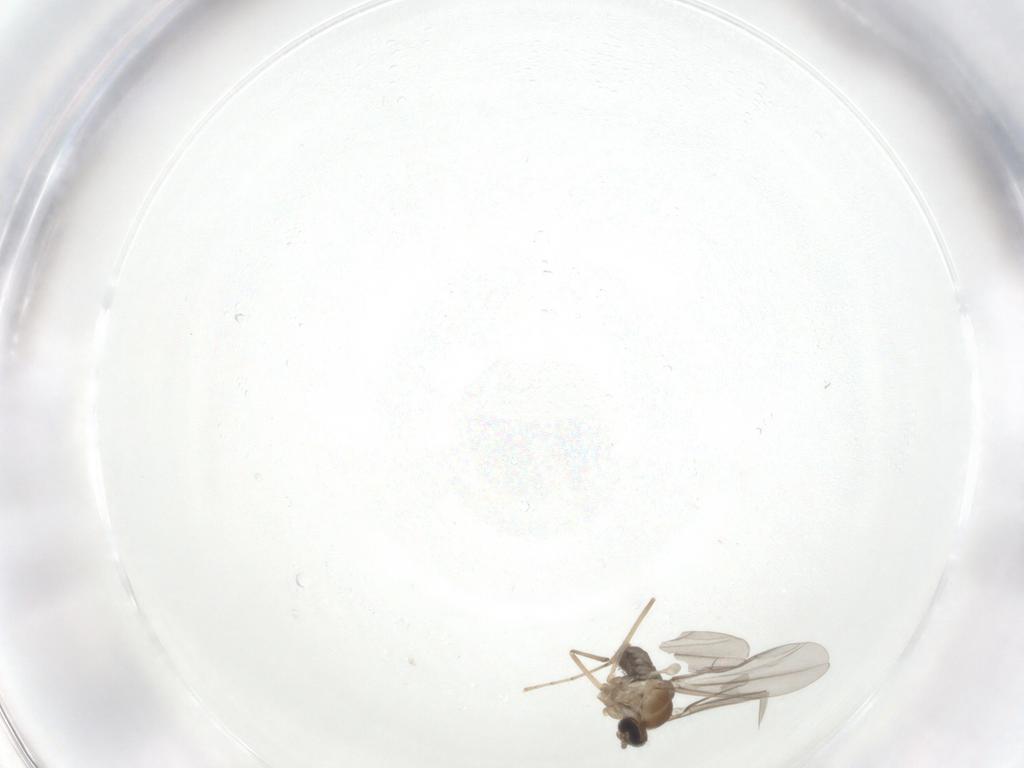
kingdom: Animalia
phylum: Arthropoda
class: Insecta
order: Diptera
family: Cecidomyiidae
